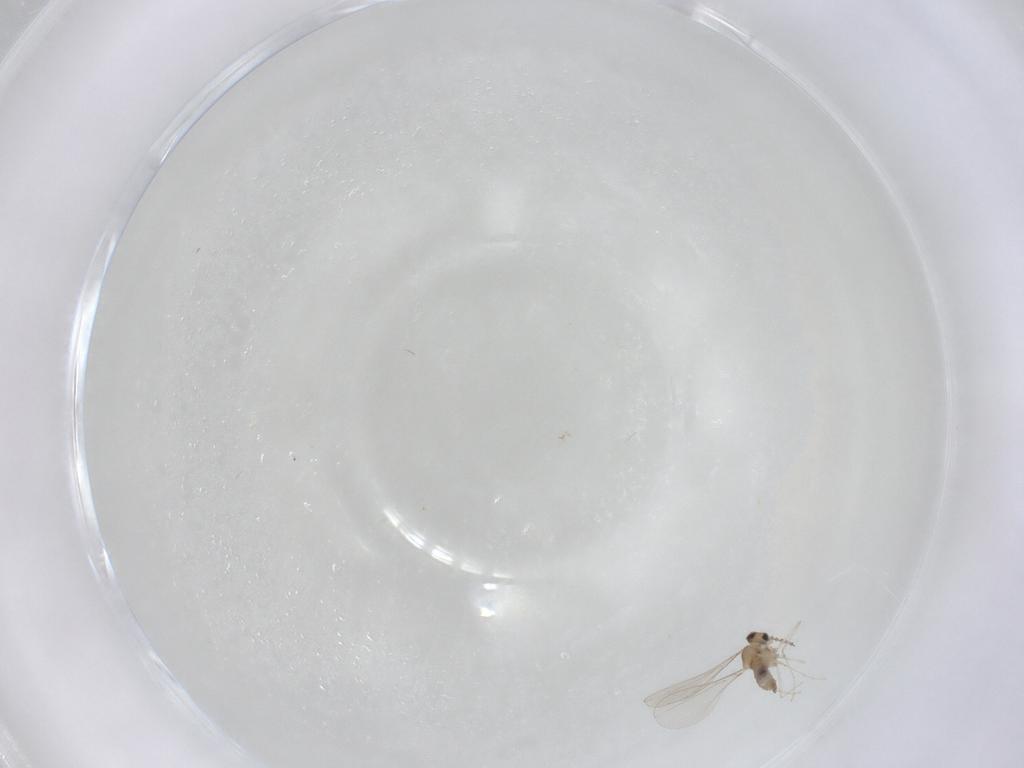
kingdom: Animalia
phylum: Arthropoda
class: Insecta
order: Diptera
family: Cecidomyiidae
